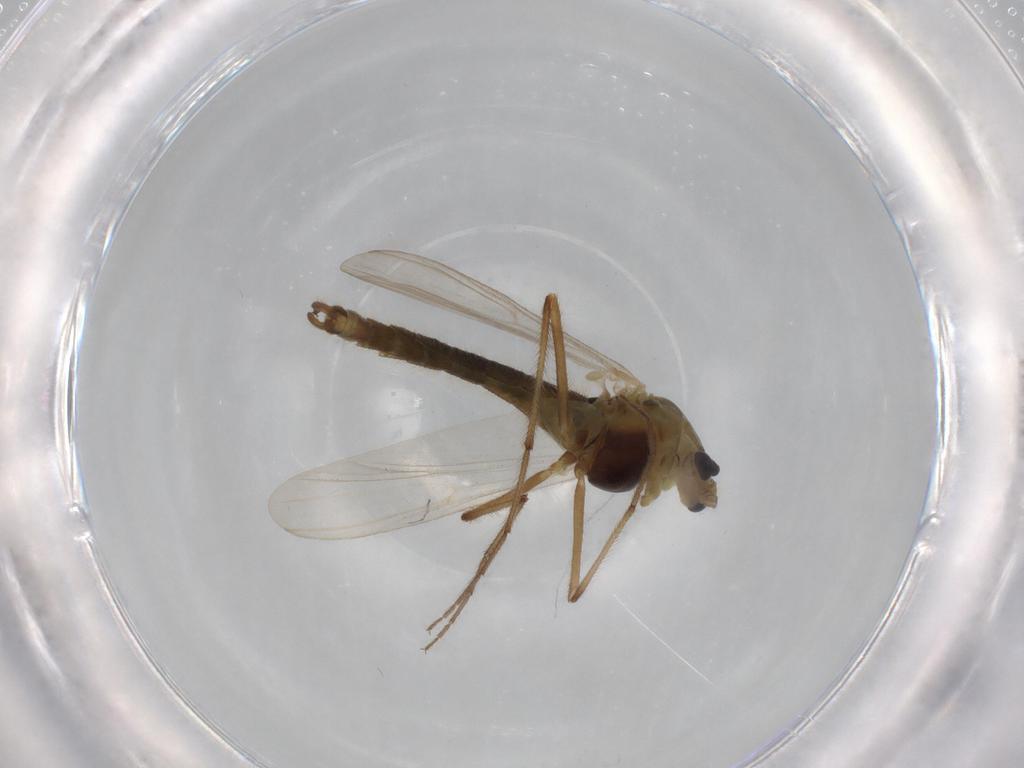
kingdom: Animalia
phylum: Arthropoda
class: Insecta
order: Diptera
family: Chironomidae
